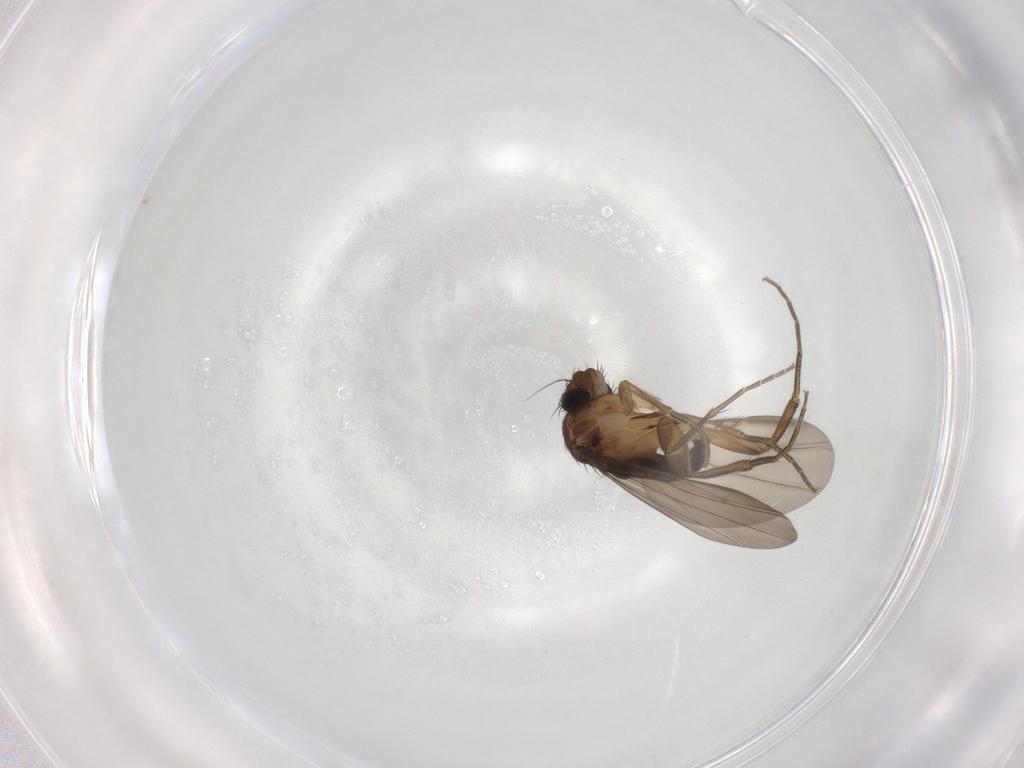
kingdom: Animalia
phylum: Arthropoda
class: Insecta
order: Diptera
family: Phoridae
